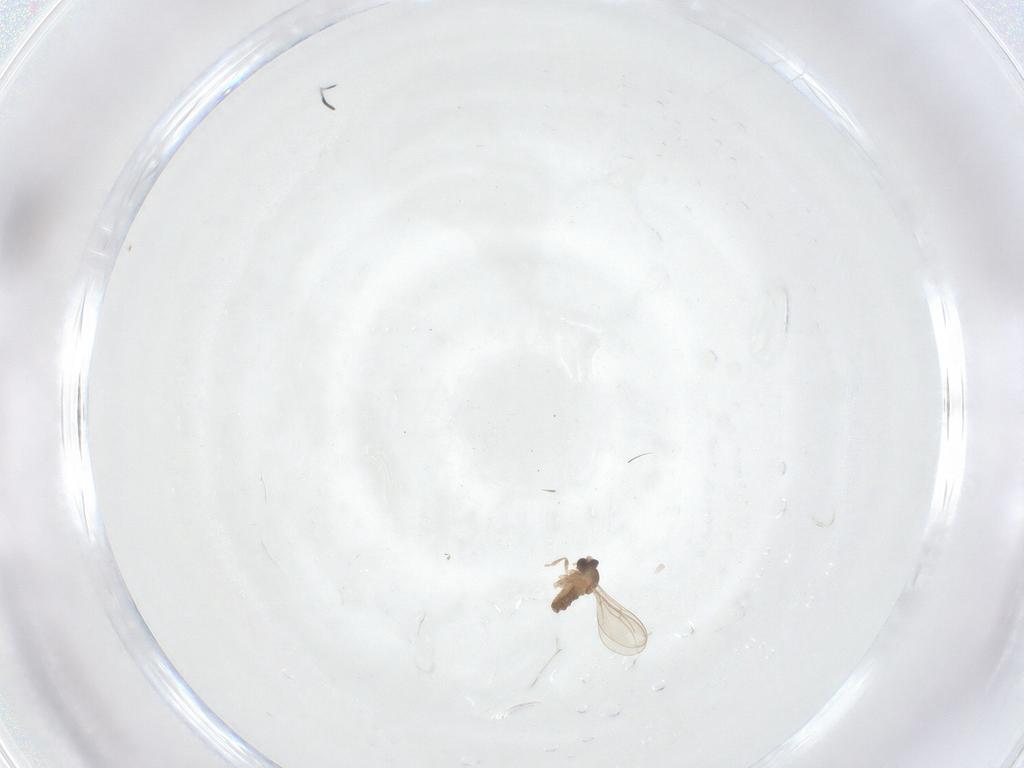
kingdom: Animalia
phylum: Arthropoda
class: Insecta
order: Diptera
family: Cecidomyiidae
